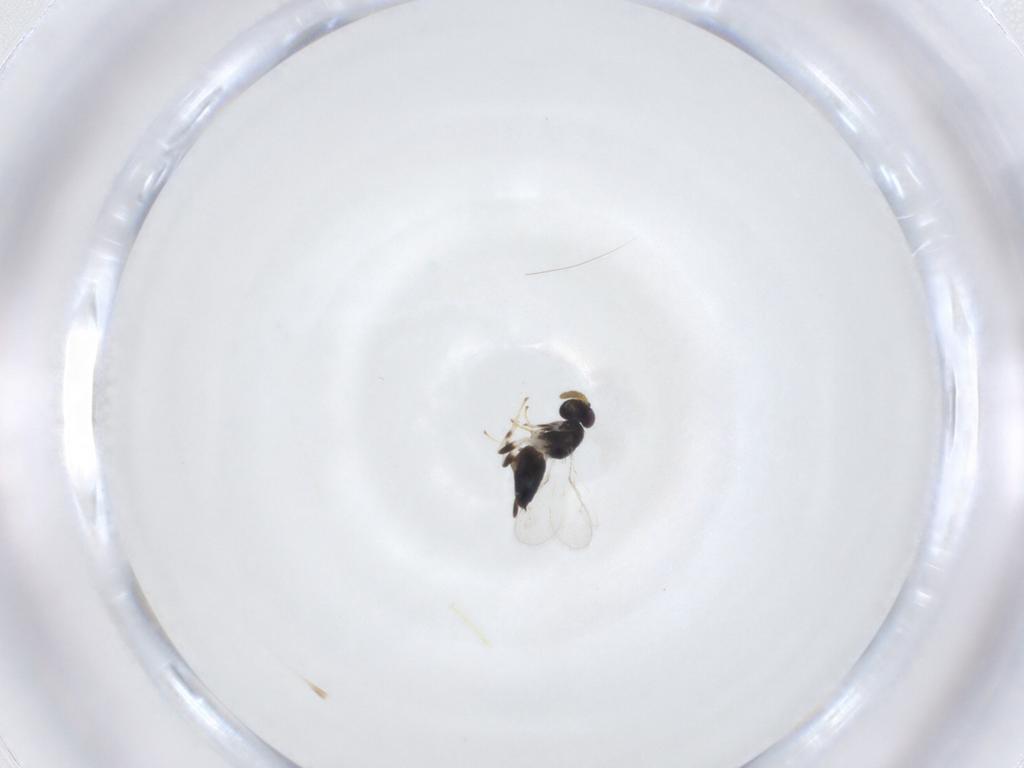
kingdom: Animalia
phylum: Arthropoda
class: Insecta
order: Hymenoptera
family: Pirenidae
